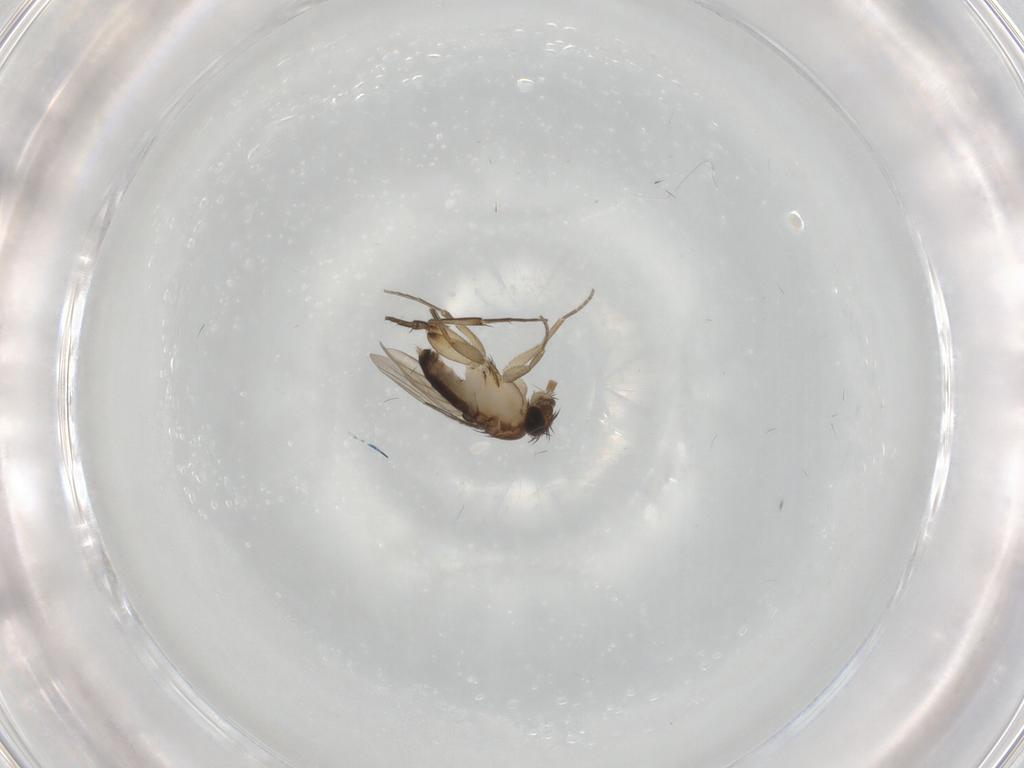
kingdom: Animalia
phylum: Arthropoda
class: Insecta
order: Diptera
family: Phoridae
